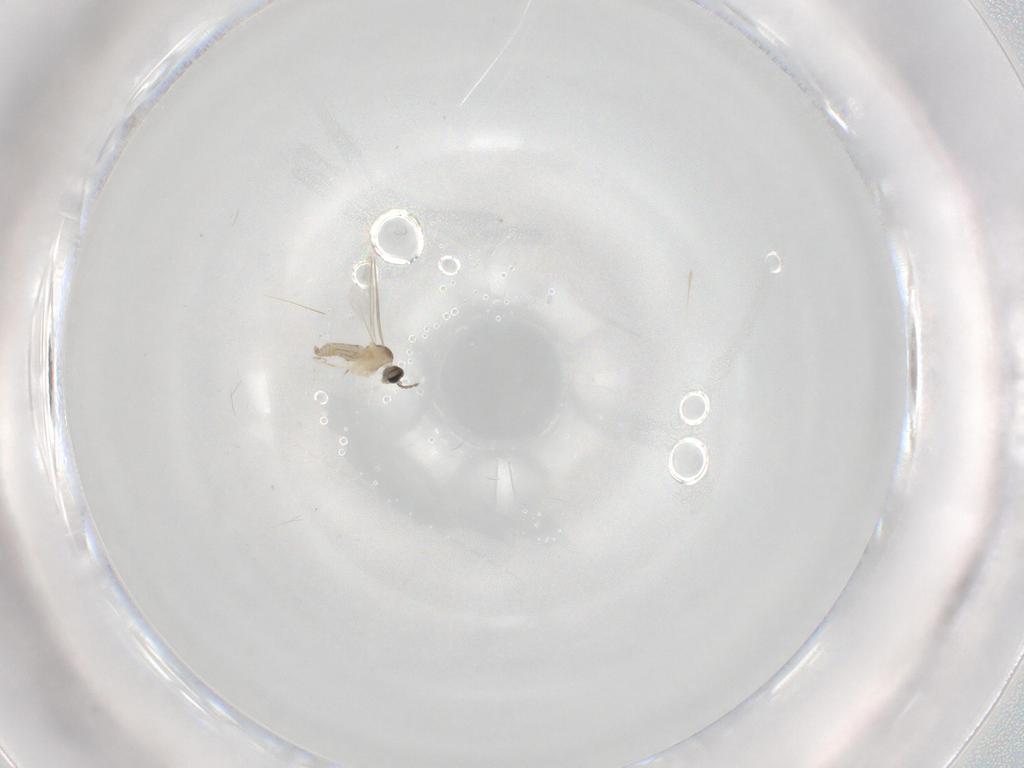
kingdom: Animalia
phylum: Arthropoda
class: Insecta
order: Diptera
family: Cecidomyiidae
